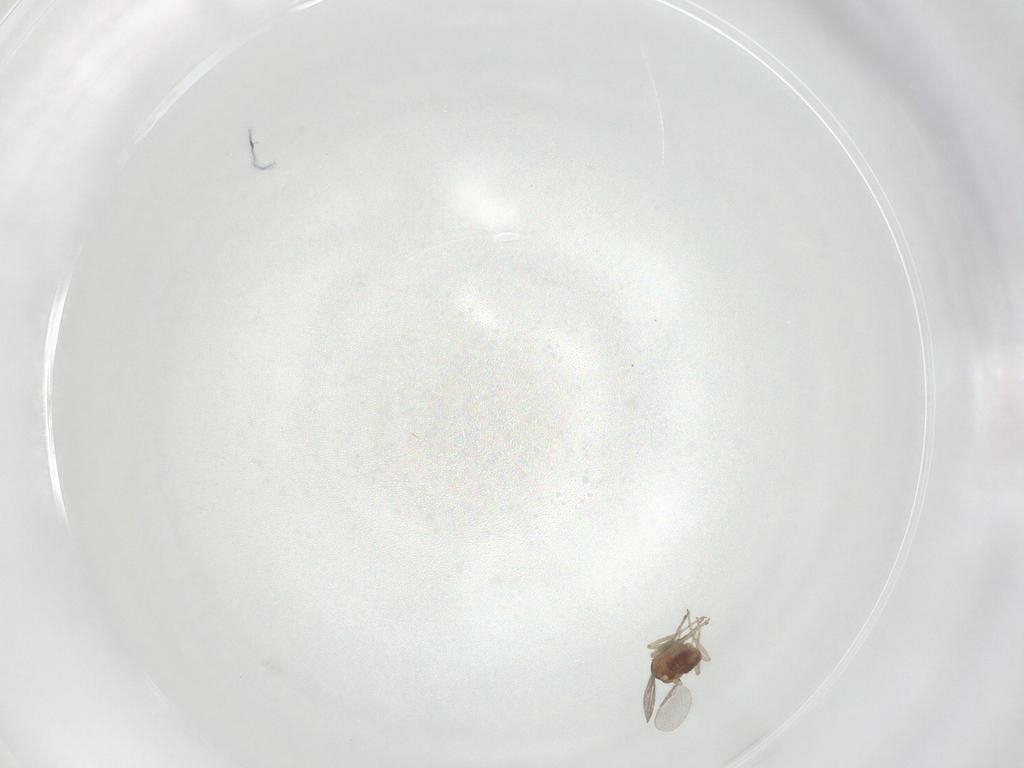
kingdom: Animalia
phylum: Arthropoda
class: Insecta
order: Diptera
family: Ceratopogonidae
